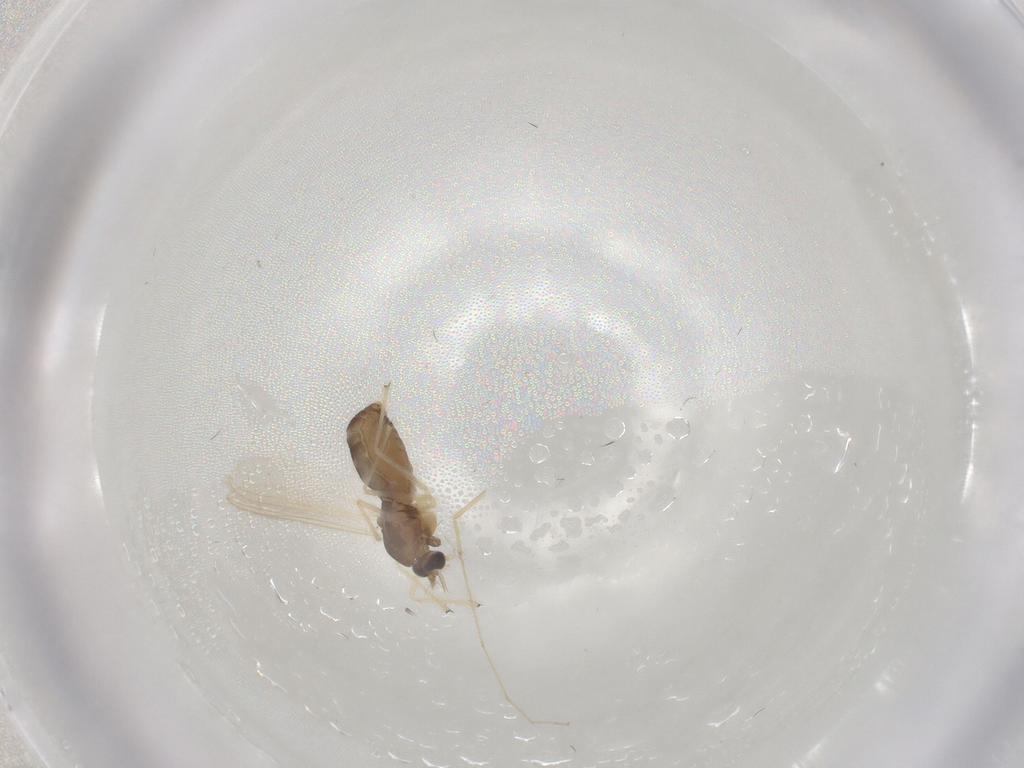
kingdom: Animalia
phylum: Arthropoda
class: Insecta
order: Diptera
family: Chironomidae
